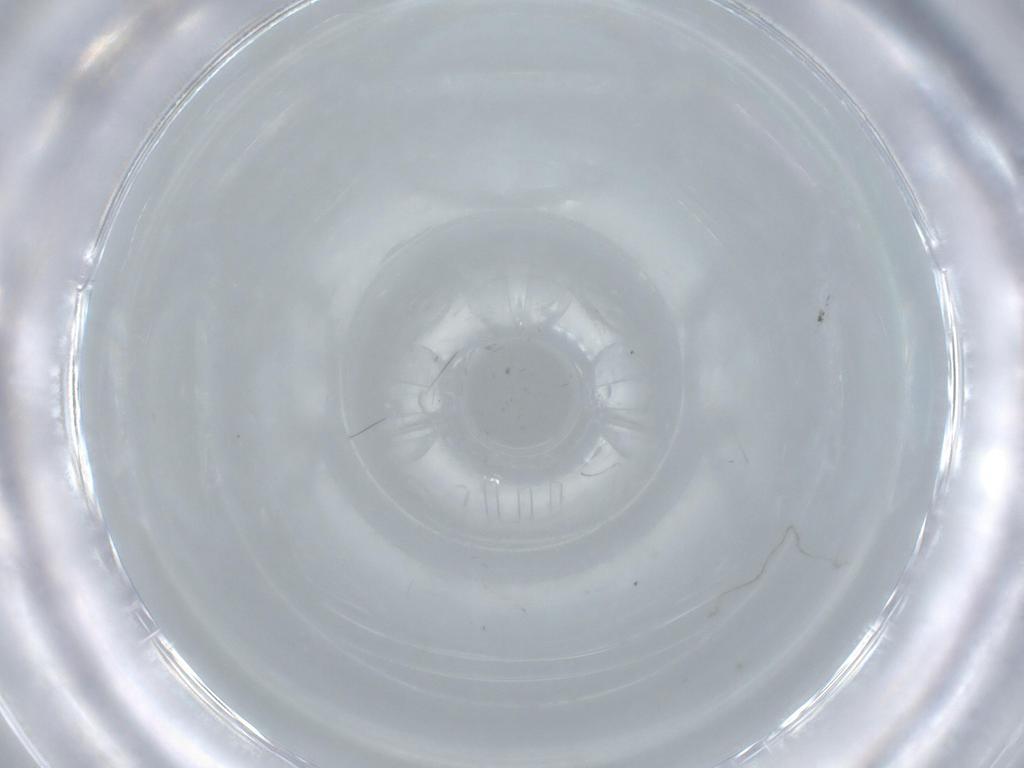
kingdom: Animalia
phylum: Arthropoda
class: Insecta
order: Diptera
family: Cecidomyiidae
